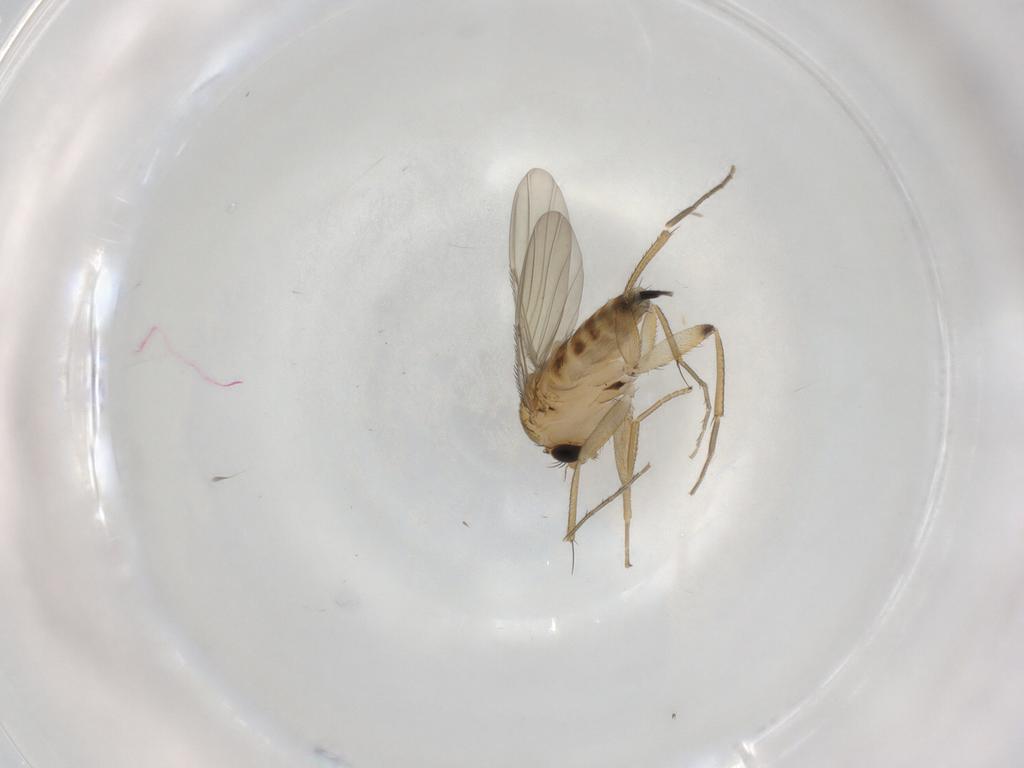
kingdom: Animalia
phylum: Arthropoda
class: Insecta
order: Diptera
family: Phoridae
